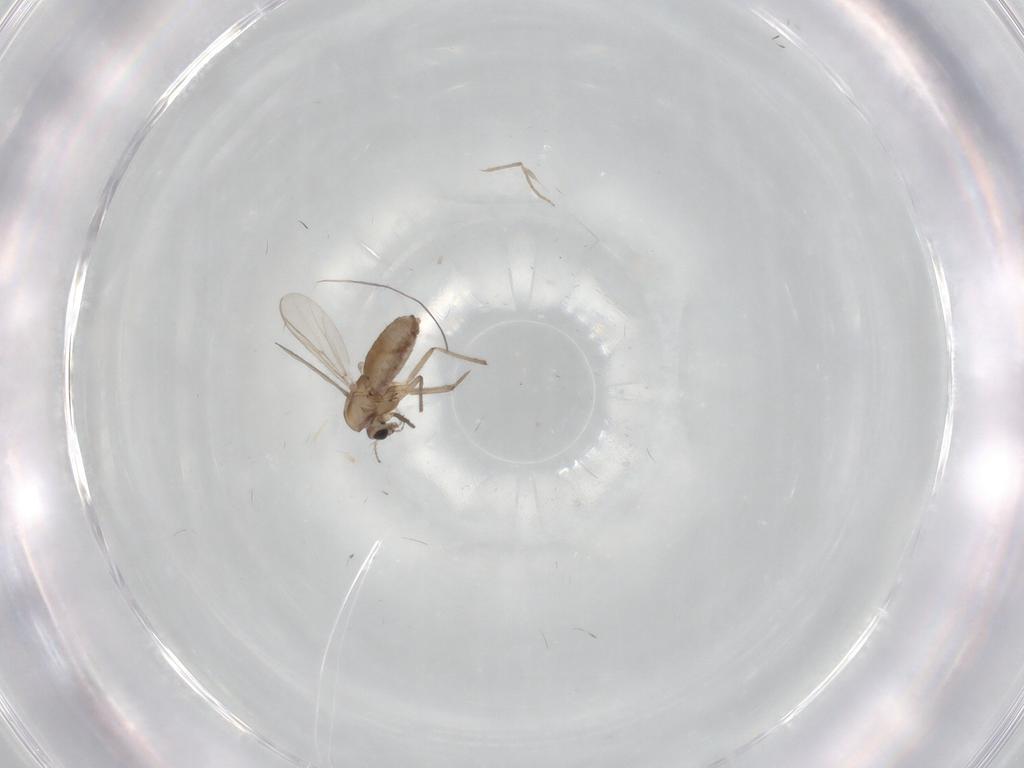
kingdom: Animalia
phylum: Arthropoda
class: Insecta
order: Diptera
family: Chironomidae
